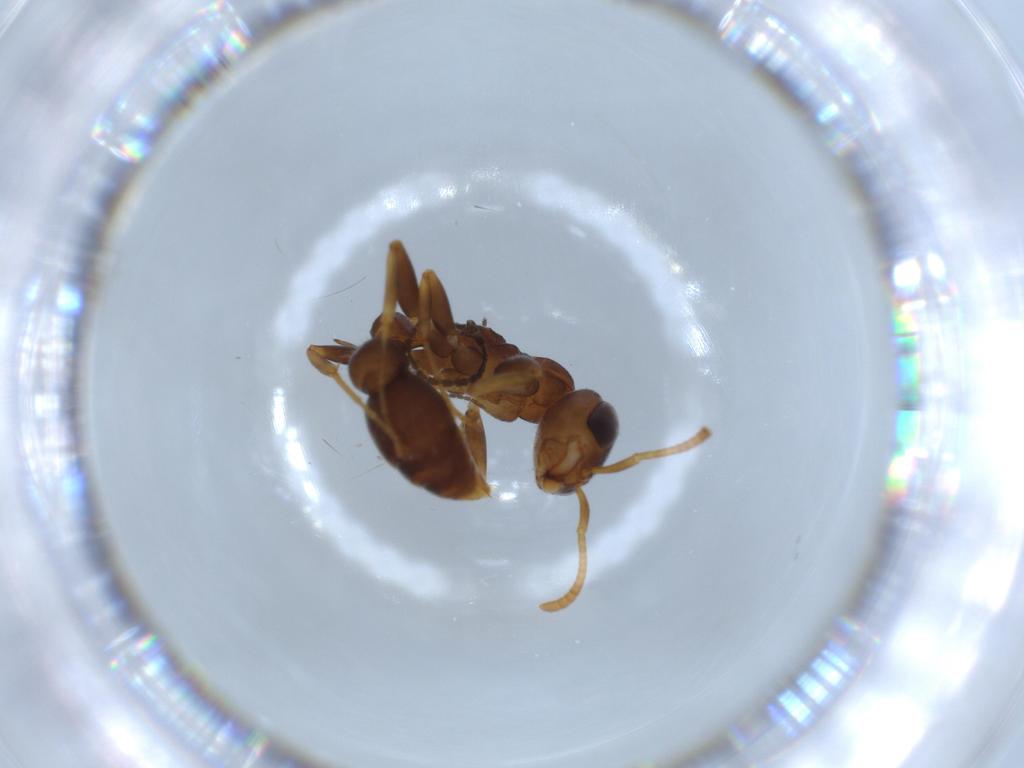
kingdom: Animalia
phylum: Arthropoda
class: Insecta
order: Hymenoptera
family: Formicidae
